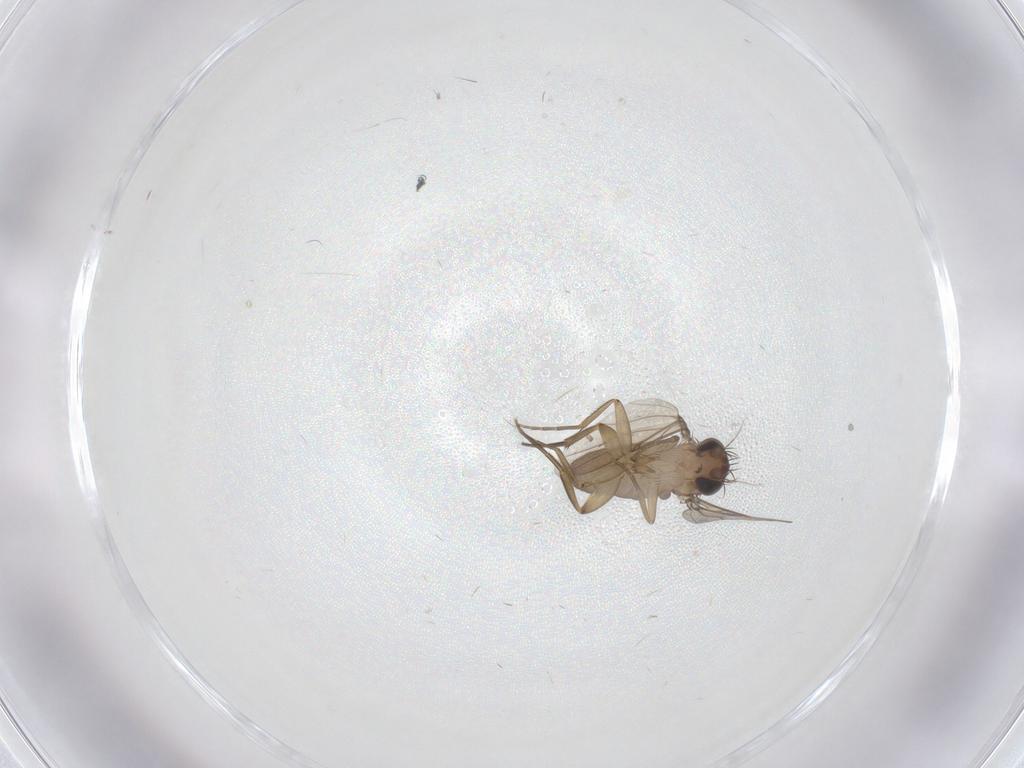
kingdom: Animalia
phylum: Arthropoda
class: Insecta
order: Diptera
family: Phoridae
